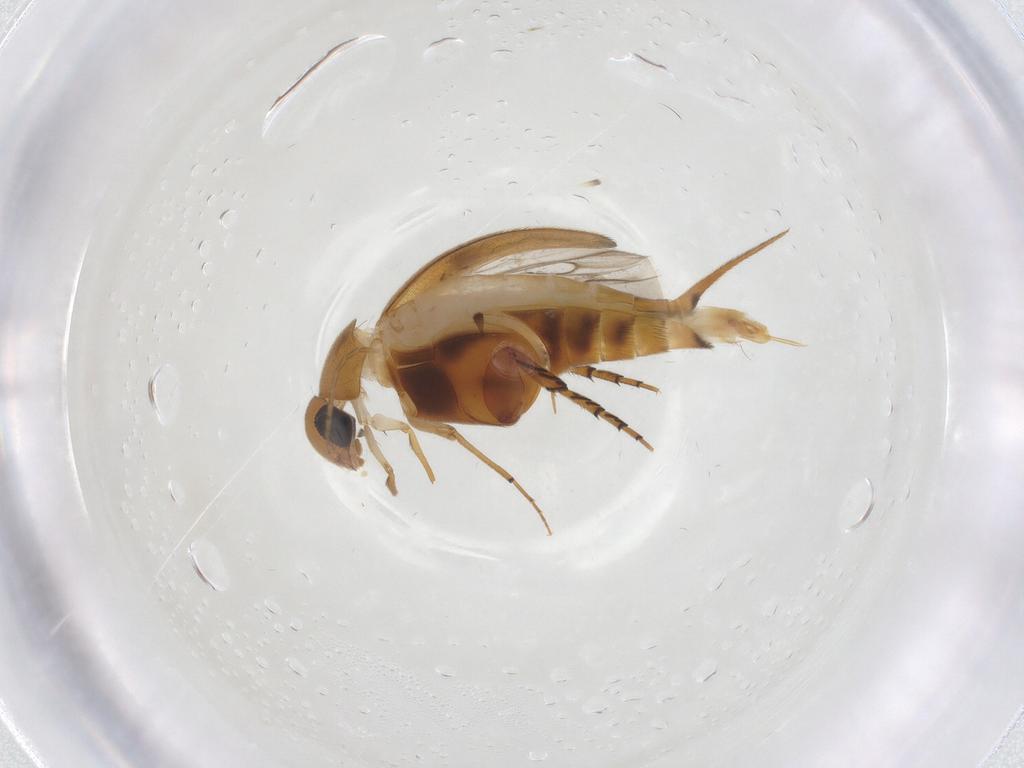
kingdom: Animalia
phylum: Arthropoda
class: Insecta
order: Coleoptera
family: Mordellidae
